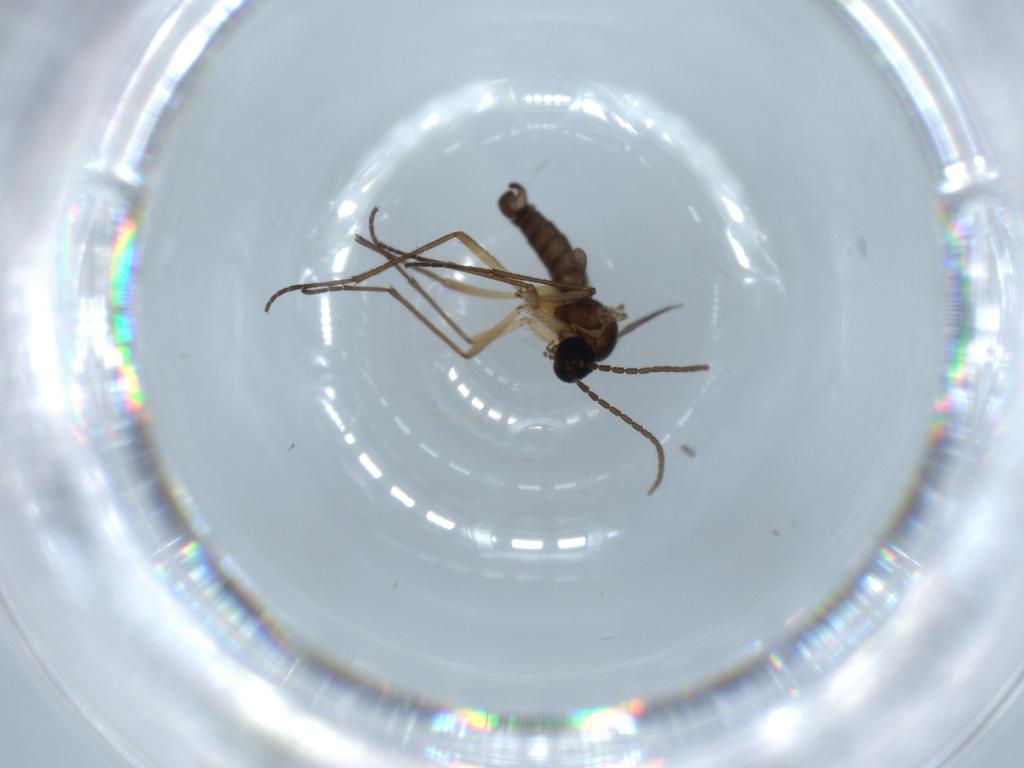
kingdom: Animalia
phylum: Arthropoda
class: Insecta
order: Diptera
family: Sciaridae
